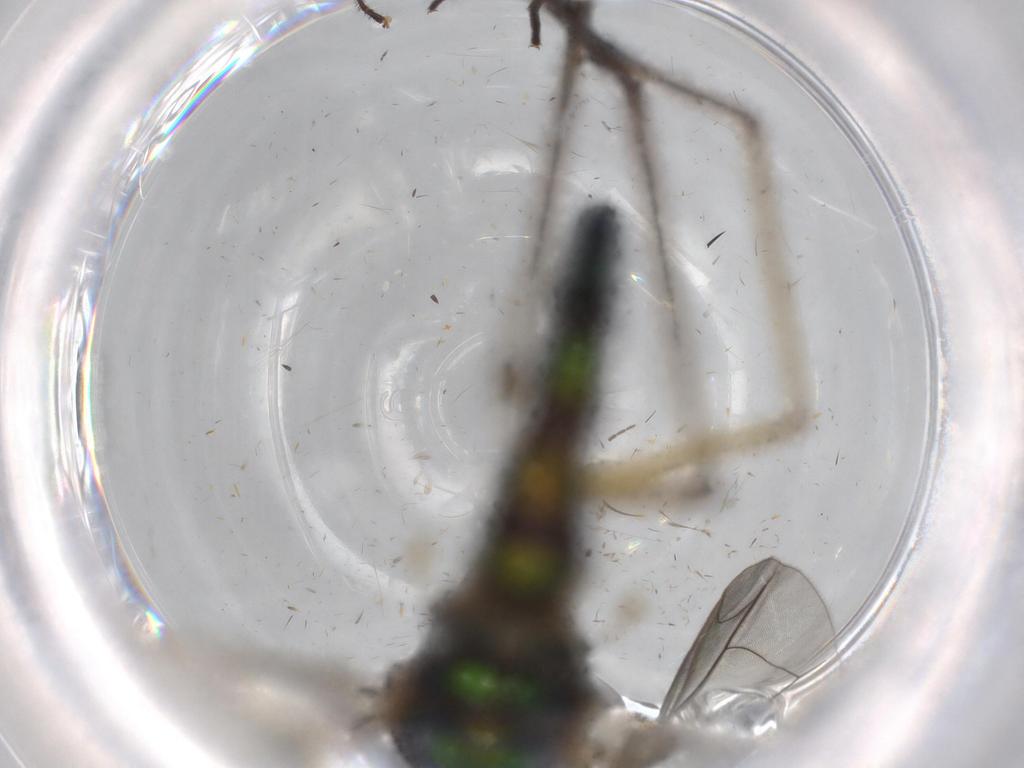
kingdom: Animalia
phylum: Arthropoda
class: Insecta
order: Diptera
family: Dolichopodidae
